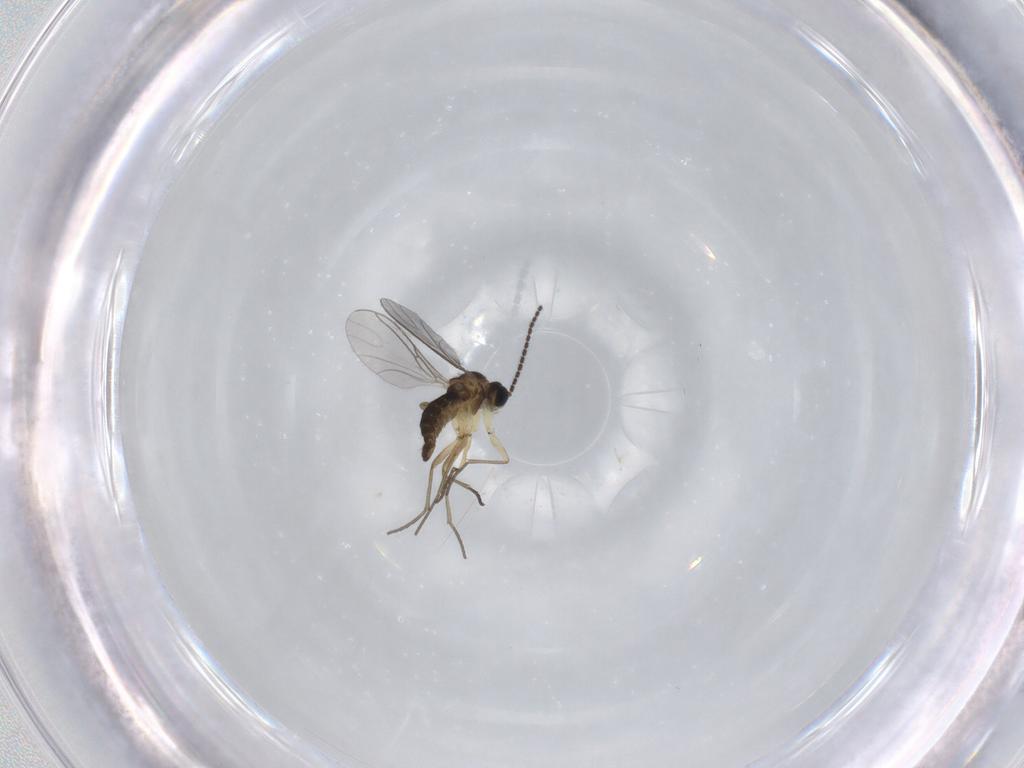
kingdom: Animalia
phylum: Arthropoda
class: Insecta
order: Diptera
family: Sciaridae
